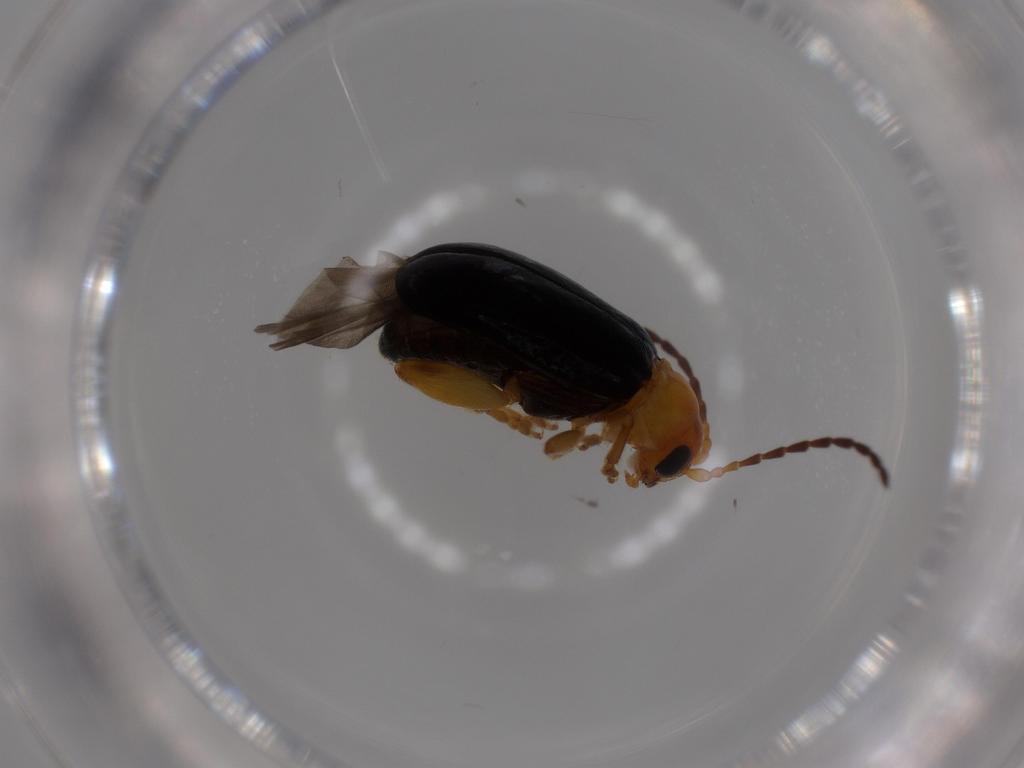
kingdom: Animalia
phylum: Arthropoda
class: Insecta
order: Coleoptera
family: Chrysomelidae
